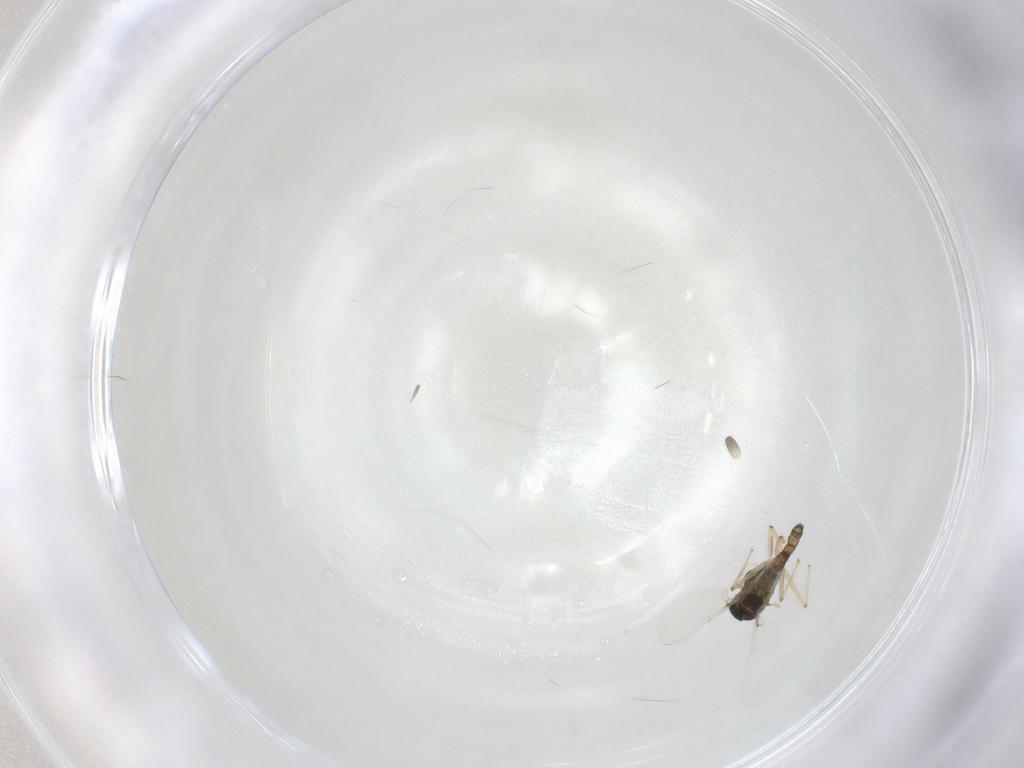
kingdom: Animalia
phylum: Arthropoda
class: Insecta
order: Diptera
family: Chironomidae
